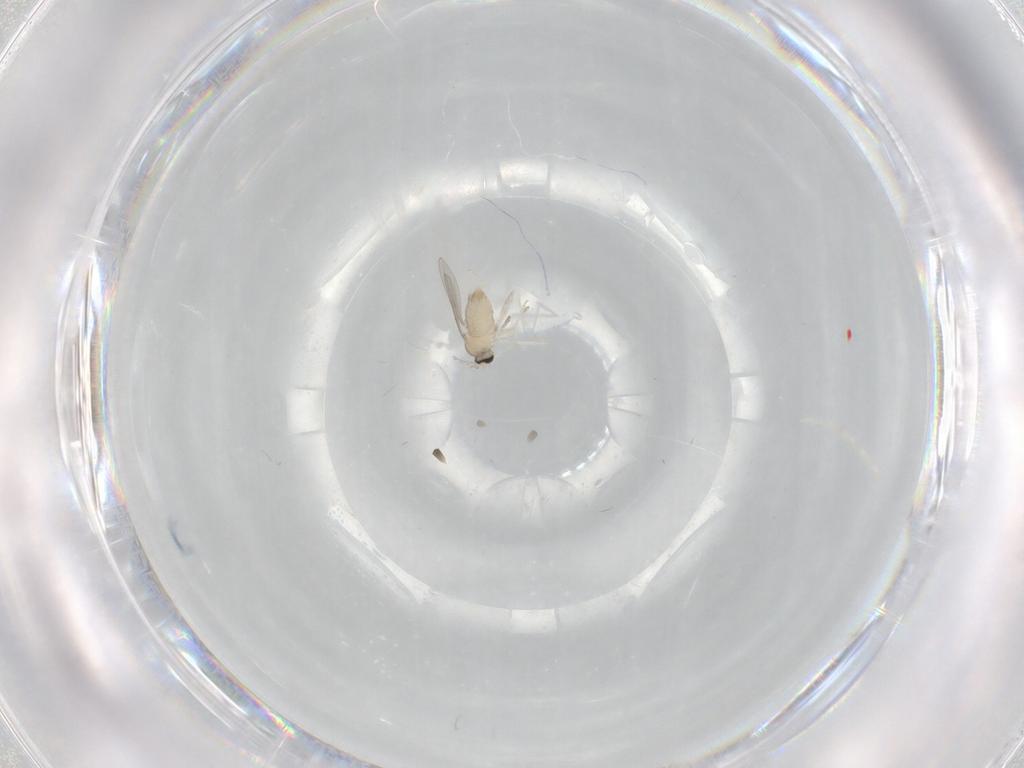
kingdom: Animalia
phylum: Arthropoda
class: Insecta
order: Diptera
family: Cecidomyiidae
